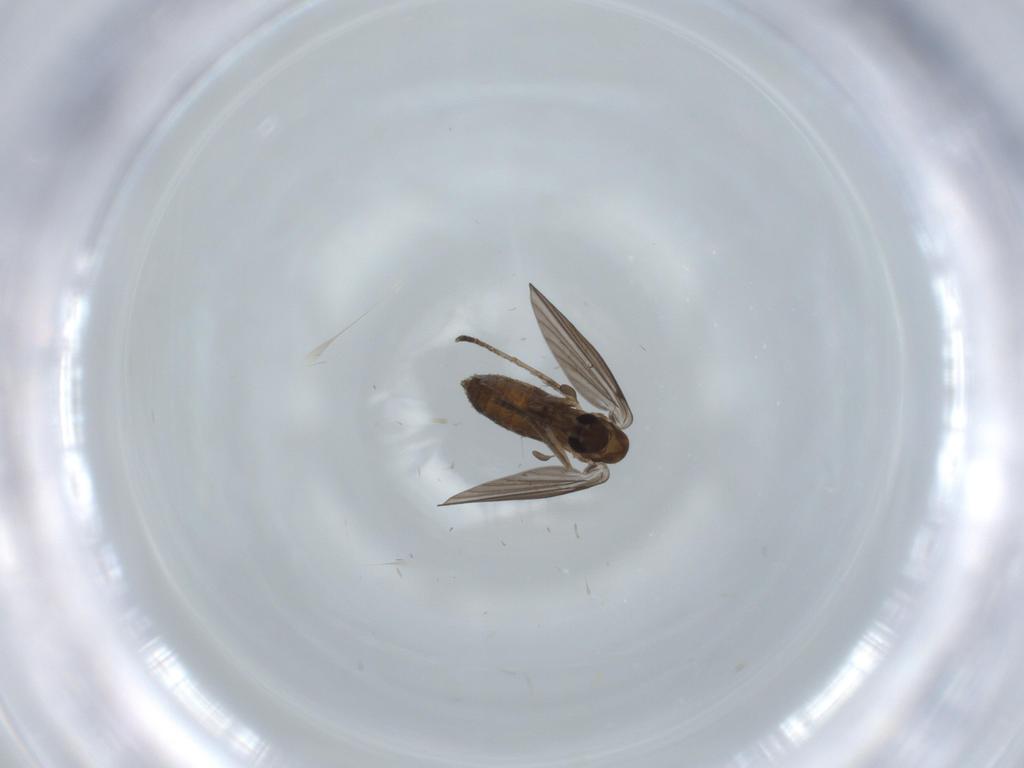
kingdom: Animalia
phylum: Arthropoda
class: Insecta
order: Diptera
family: Psychodidae
